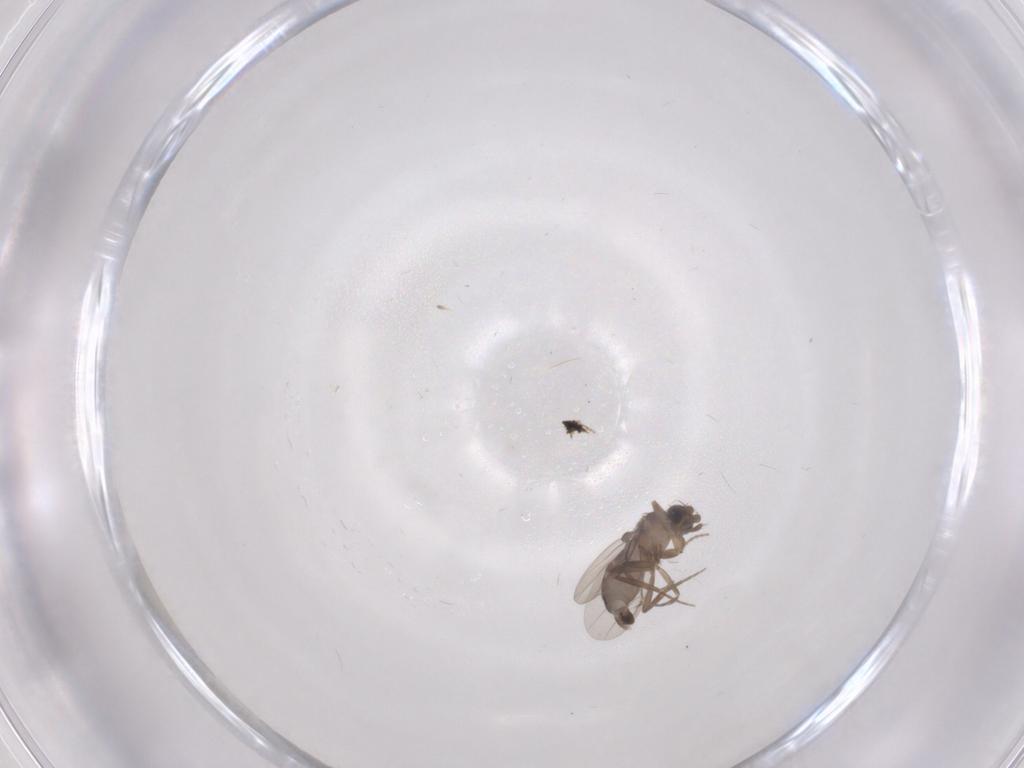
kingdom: Animalia
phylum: Arthropoda
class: Insecta
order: Diptera
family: Phoridae
